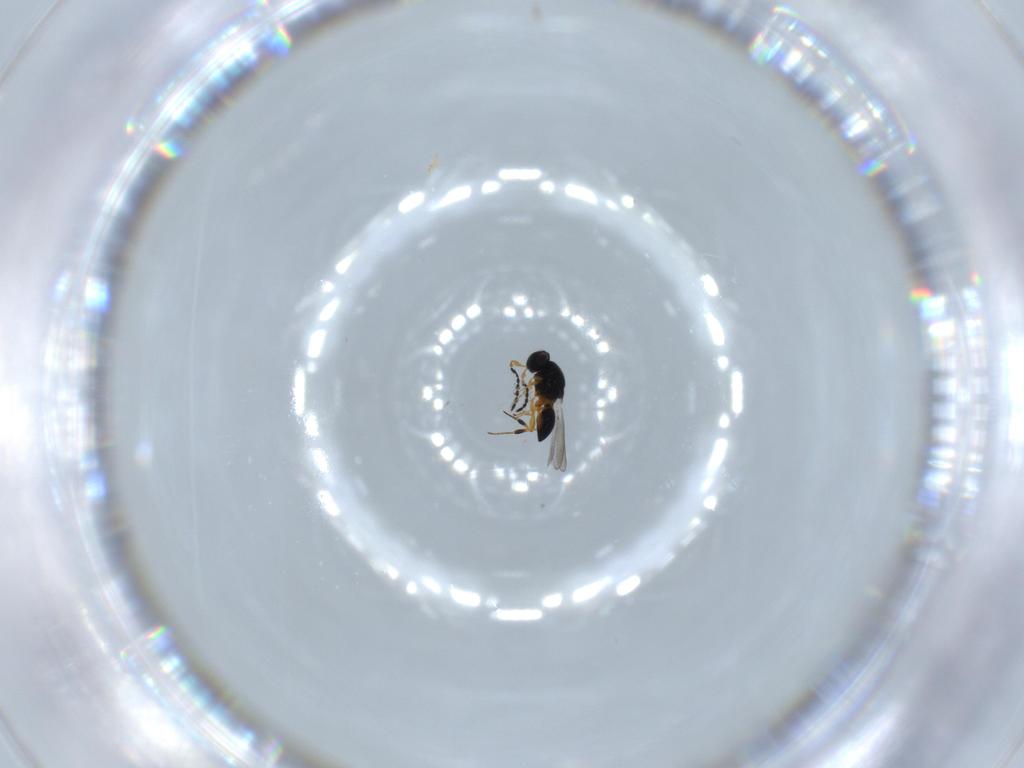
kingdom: Animalia
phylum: Arthropoda
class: Insecta
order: Hymenoptera
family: Platygastridae
